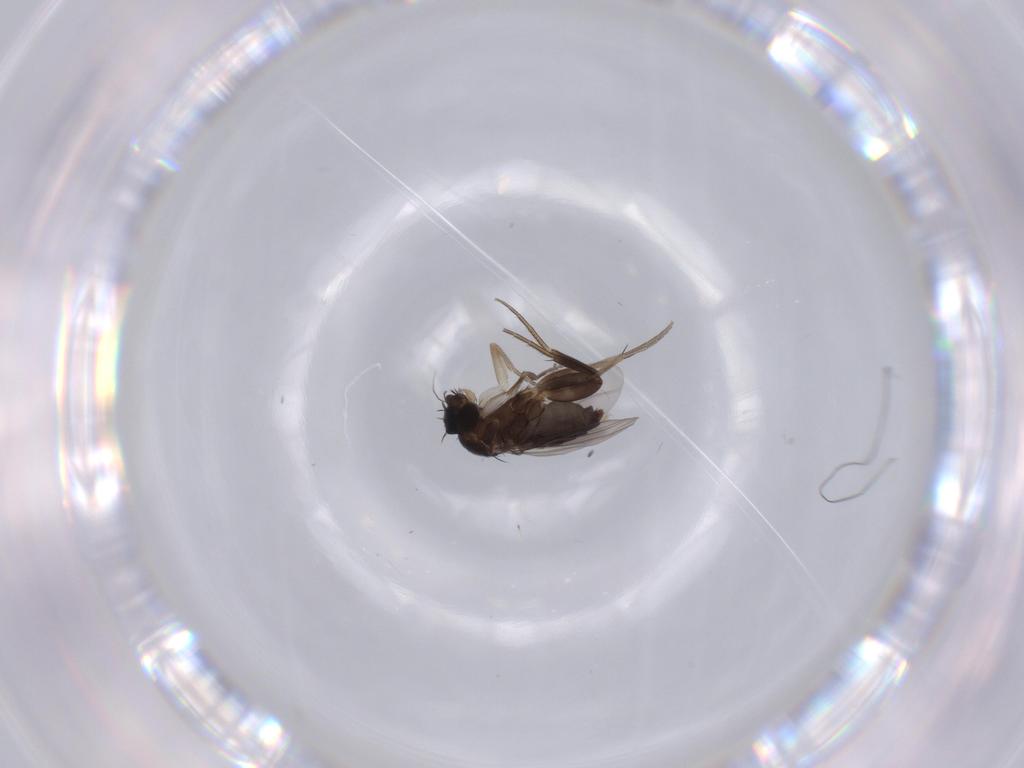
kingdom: Animalia
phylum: Arthropoda
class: Insecta
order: Diptera
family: Phoridae
